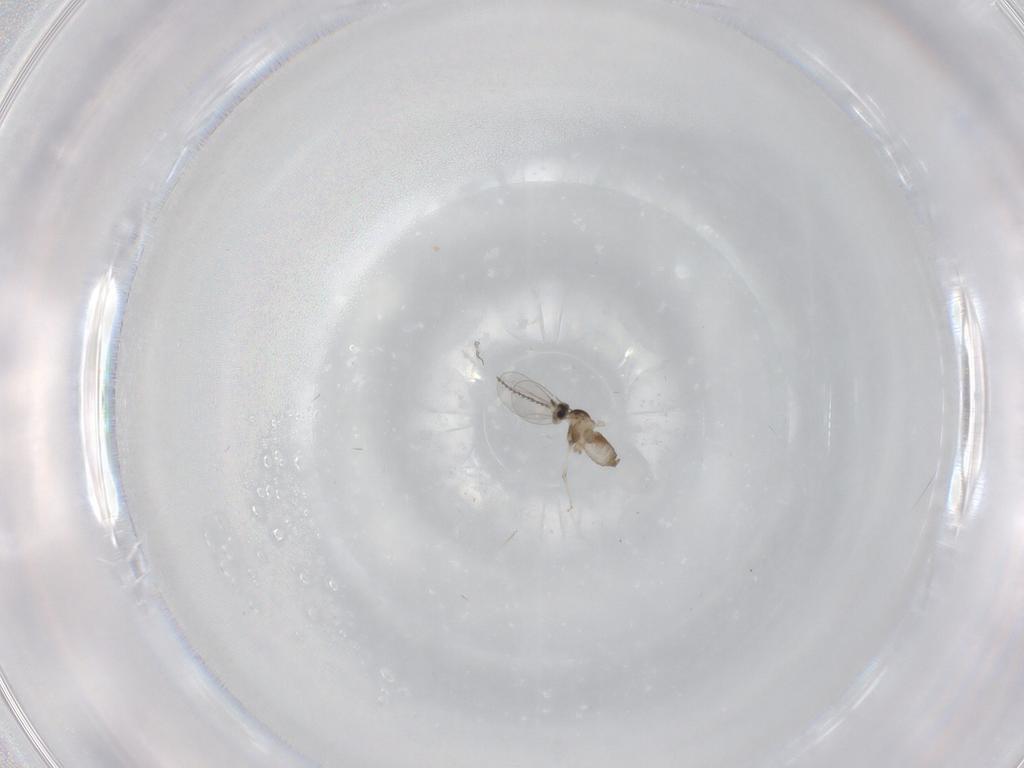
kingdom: Animalia
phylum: Arthropoda
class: Insecta
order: Diptera
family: Cecidomyiidae
